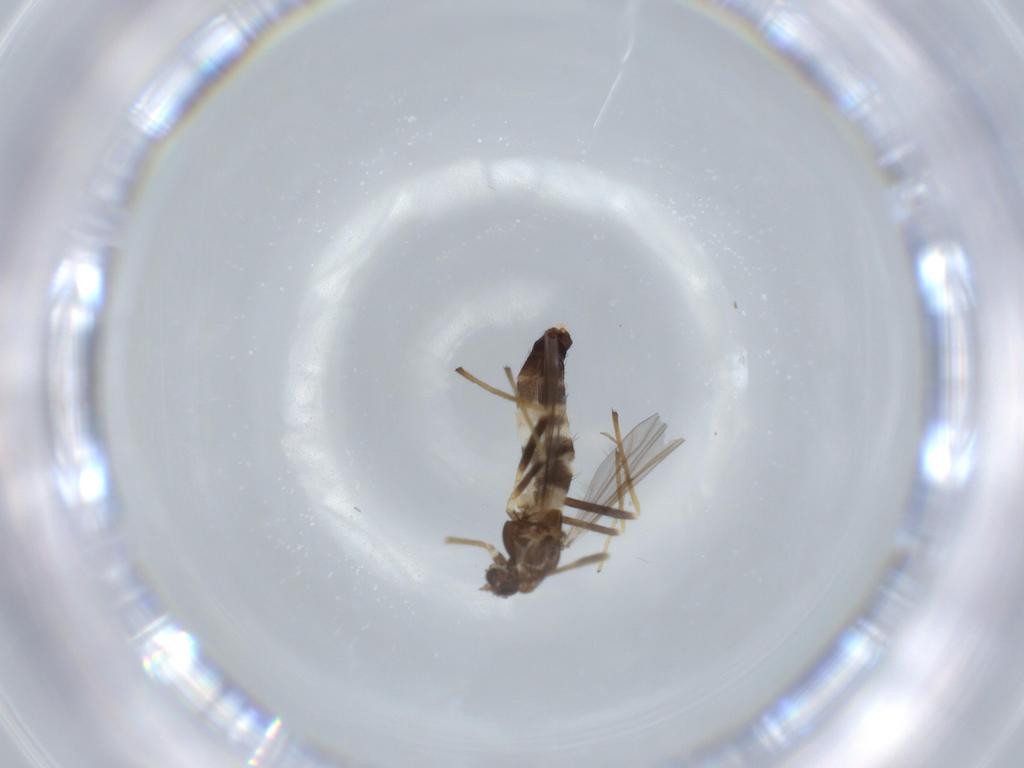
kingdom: Animalia
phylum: Arthropoda
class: Insecta
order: Diptera
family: Chironomidae
